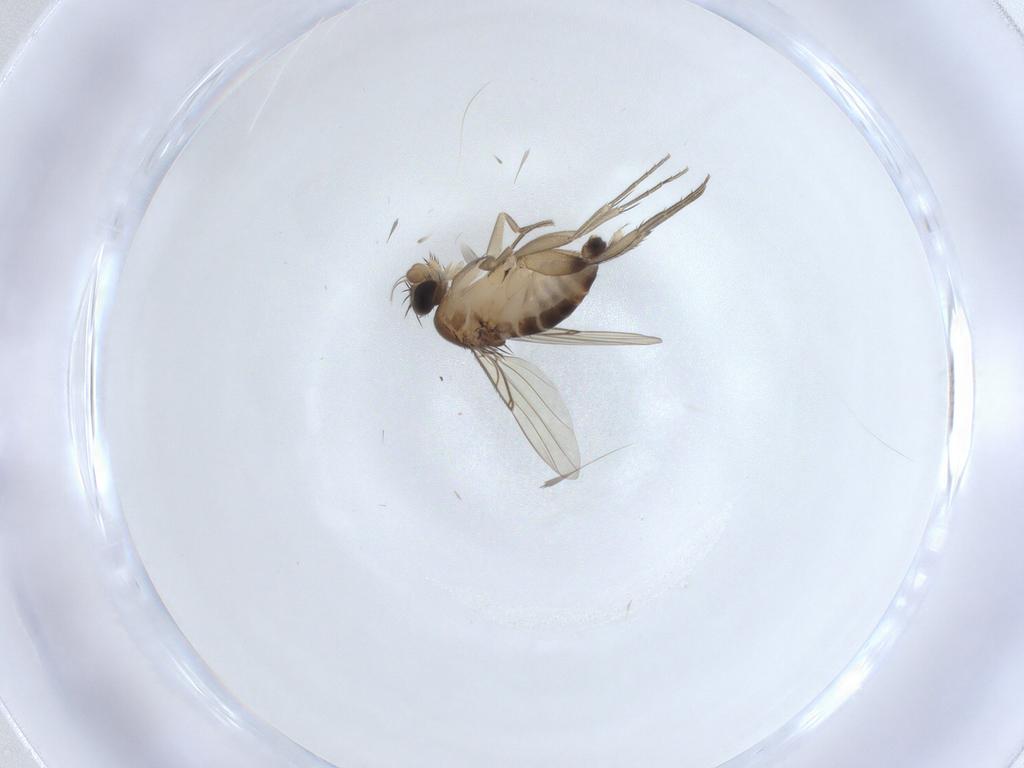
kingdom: Animalia
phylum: Arthropoda
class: Insecta
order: Diptera
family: Phoridae
